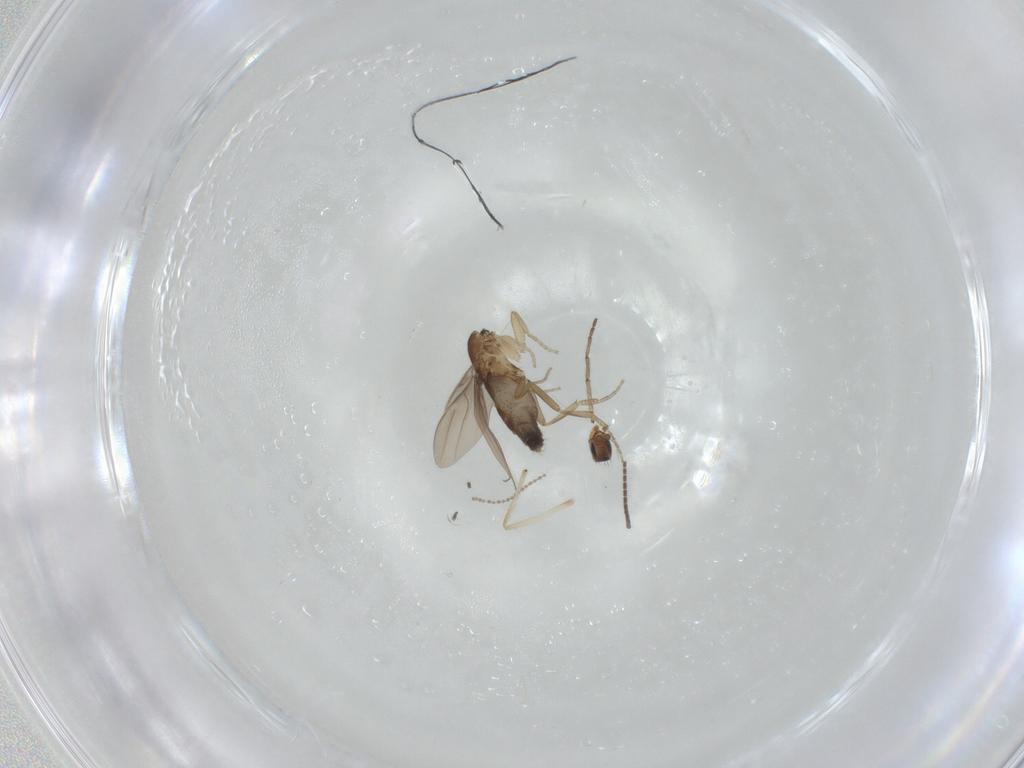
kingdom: Animalia
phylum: Arthropoda
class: Insecta
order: Diptera
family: Phoridae
